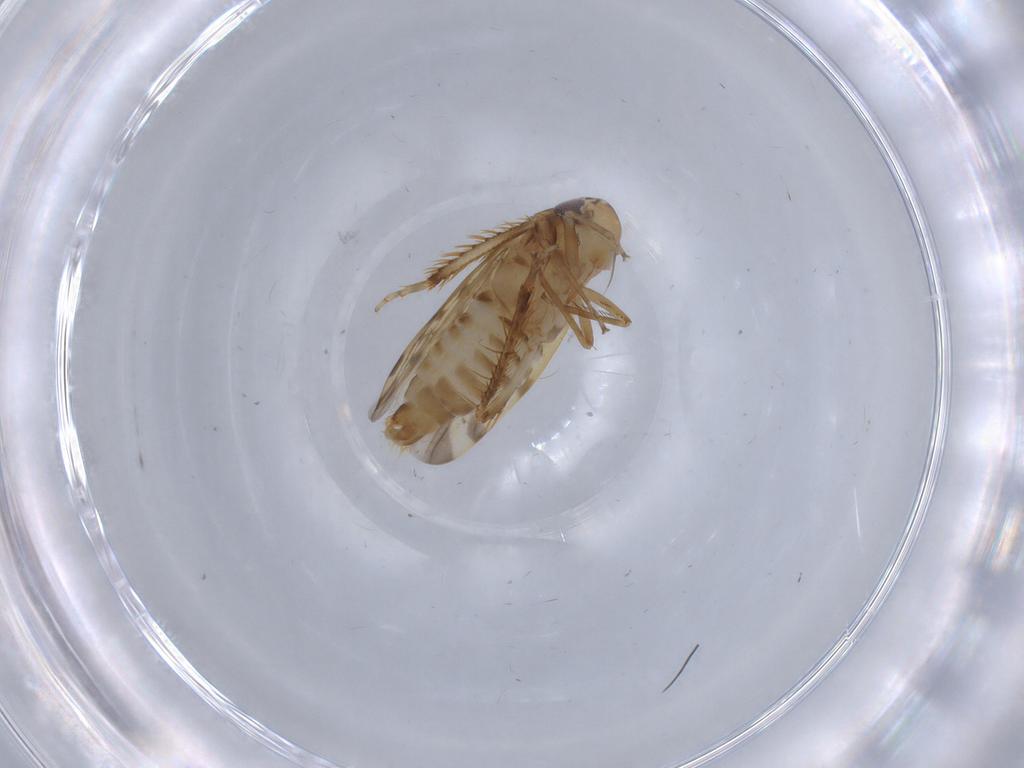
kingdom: Animalia
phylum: Arthropoda
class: Insecta
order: Hemiptera
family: Cicadellidae
